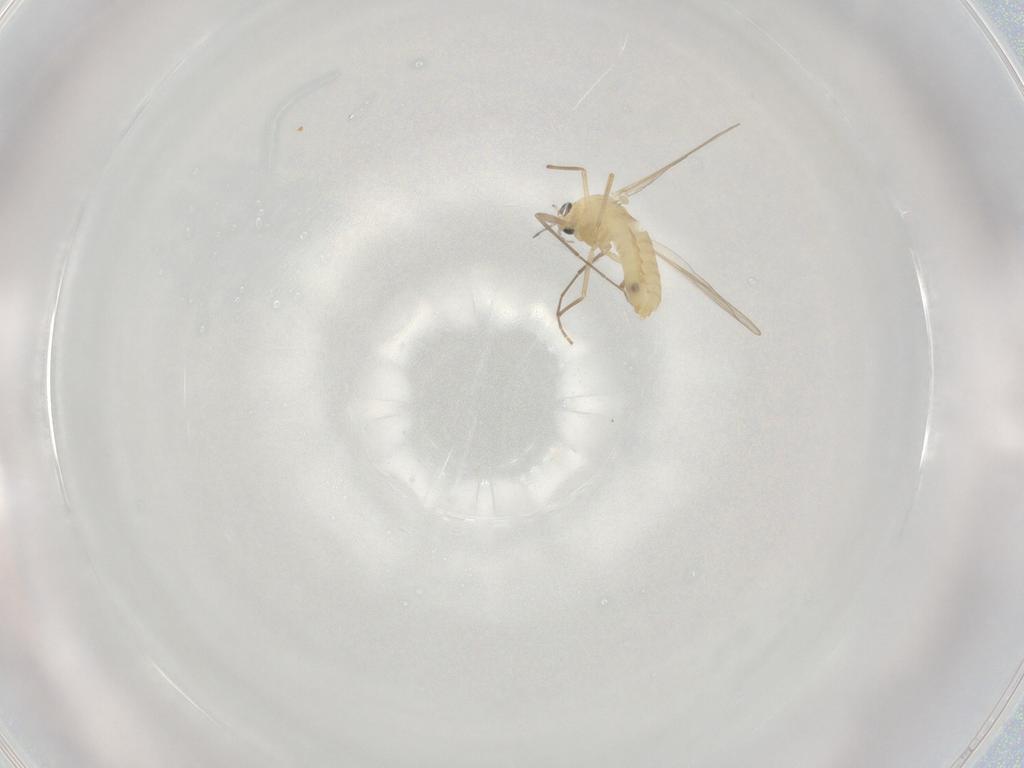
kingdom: Animalia
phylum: Arthropoda
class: Insecta
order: Diptera
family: Chironomidae
